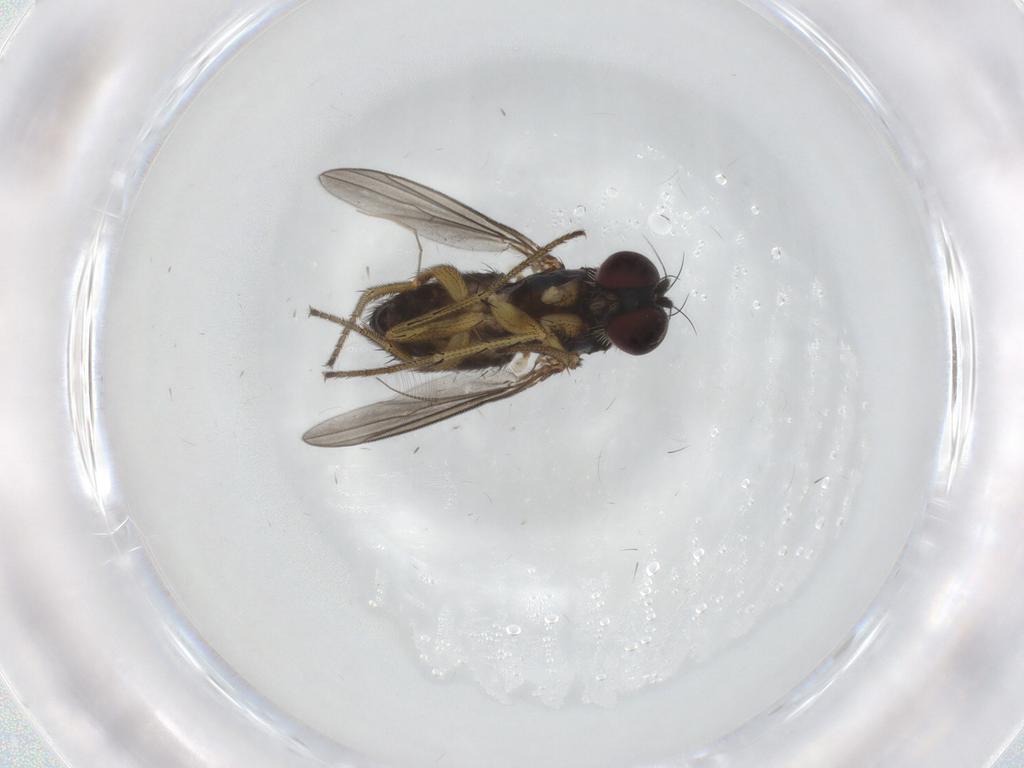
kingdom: Animalia
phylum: Arthropoda
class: Insecta
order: Diptera
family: Dolichopodidae
